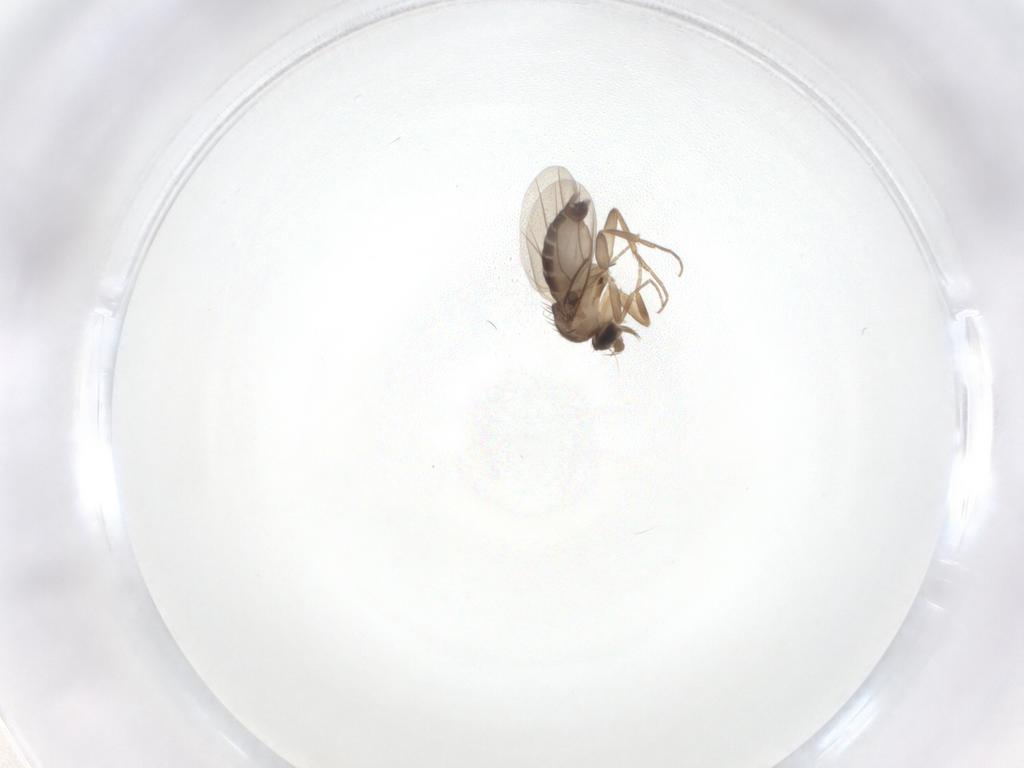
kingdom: Animalia
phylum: Arthropoda
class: Insecta
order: Diptera
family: Phoridae
